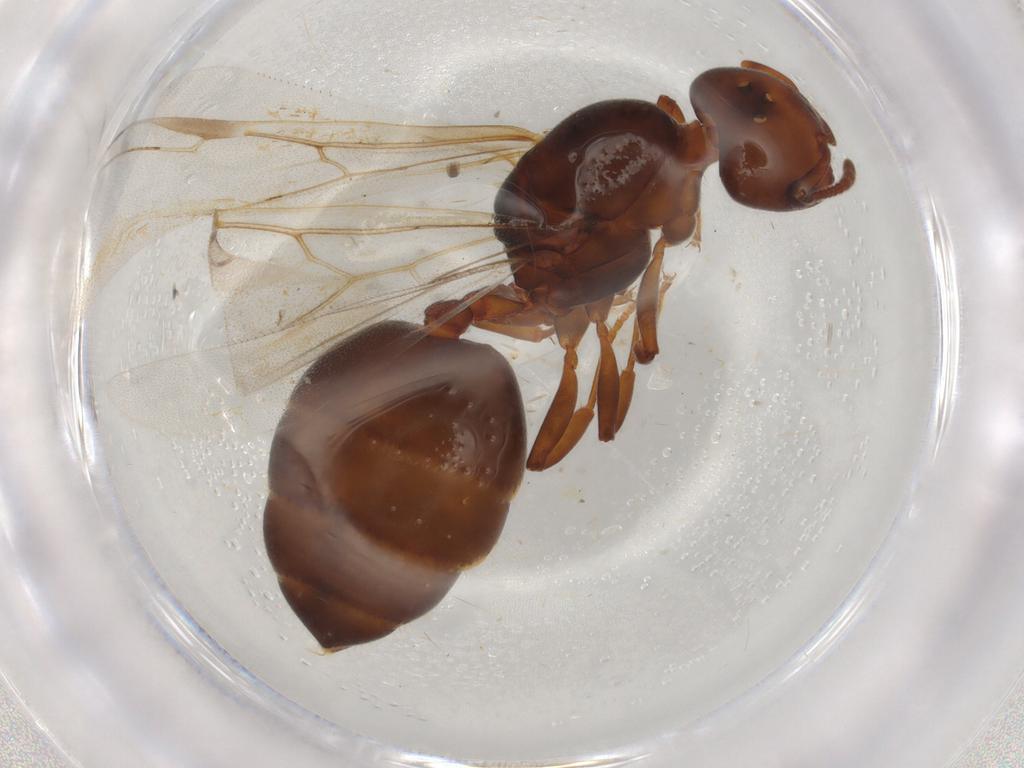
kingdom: Animalia
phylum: Arthropoda
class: Insecta
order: Hymenoptera
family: Formicidae
